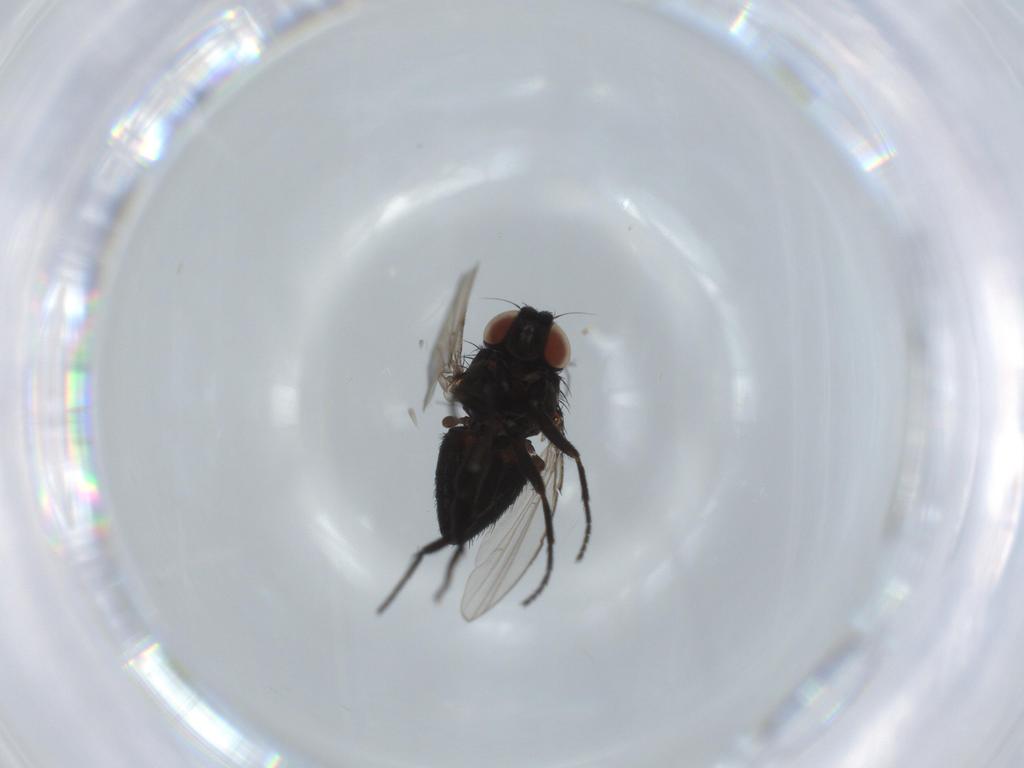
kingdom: Animalia
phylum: Arthropoda
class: Insecta
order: Diptera
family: Milichiidae
